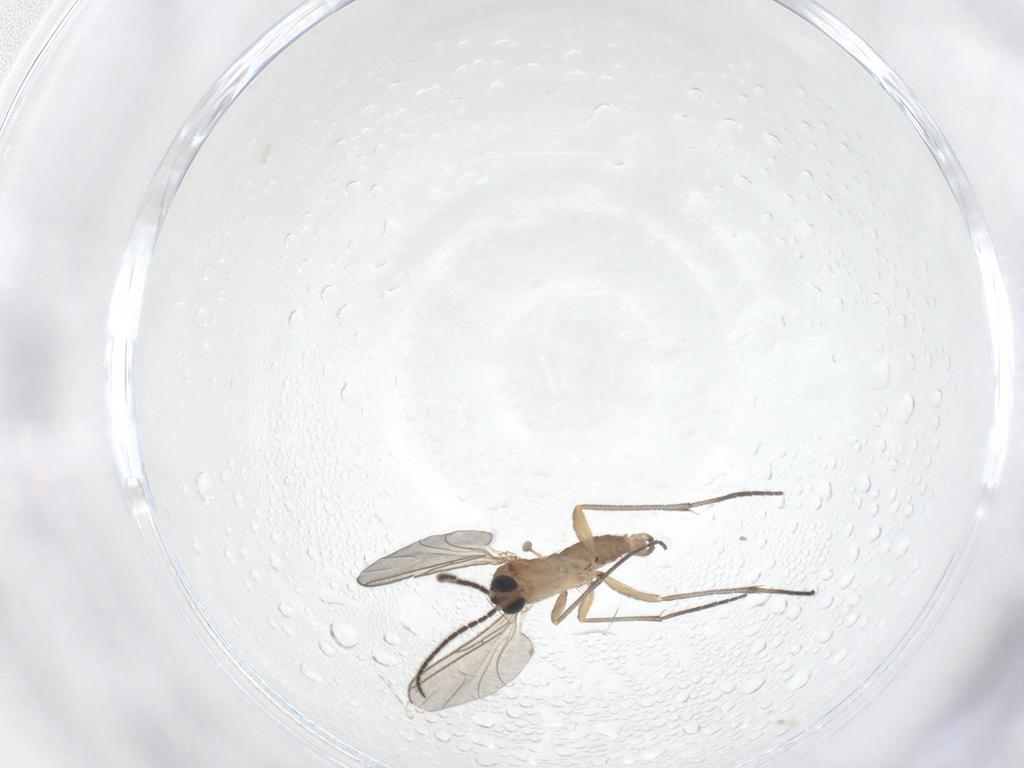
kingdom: Animalia
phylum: Arthropoda
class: Insecta
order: Diptera
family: Sciaridae
